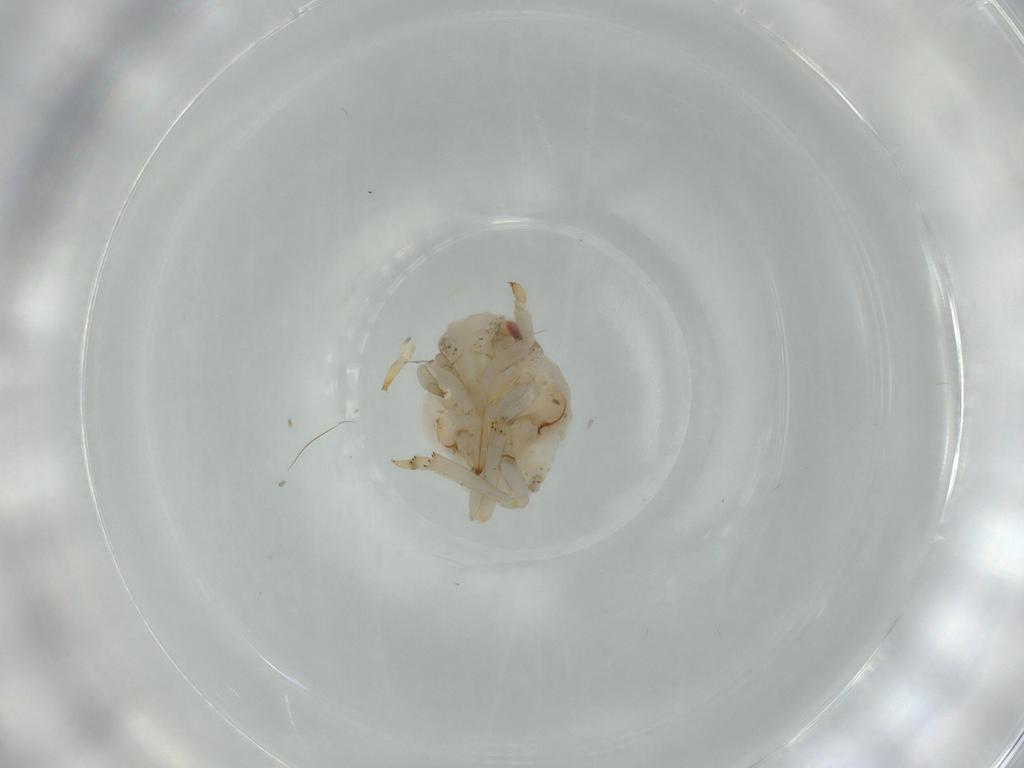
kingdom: Animalia
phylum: Arthropoda
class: Insecta
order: Hemiptera
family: Acanaloniidae
